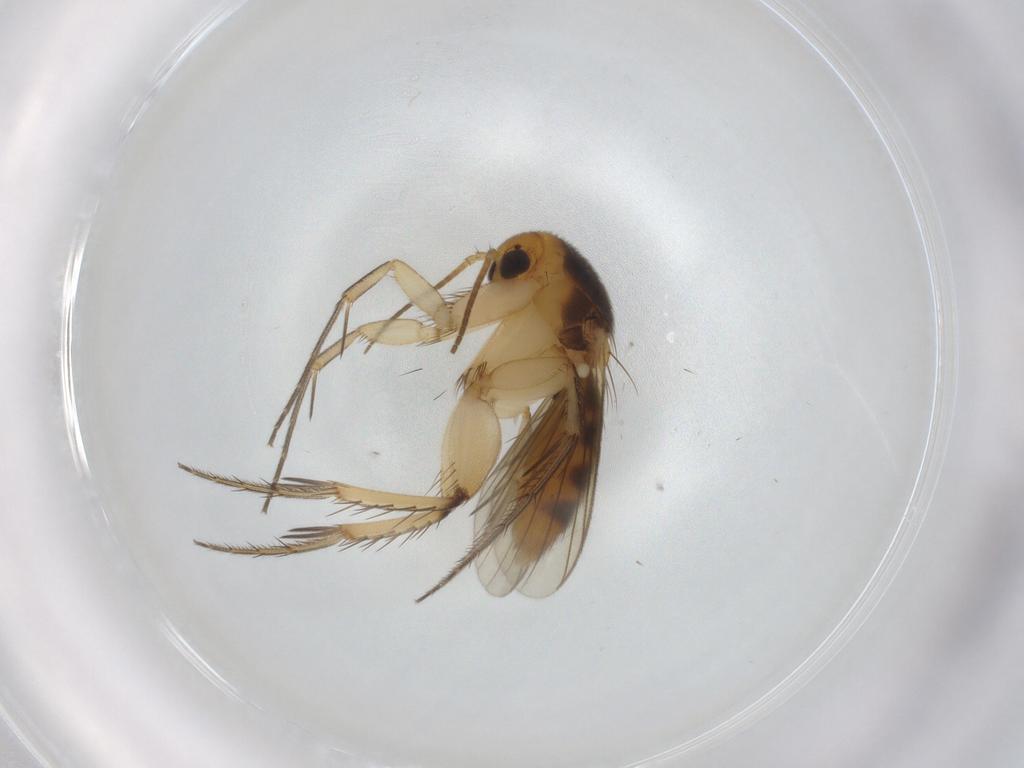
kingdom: Animalia
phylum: Arthropoda
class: Insecta
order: Diptera
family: Mycetophilidae
